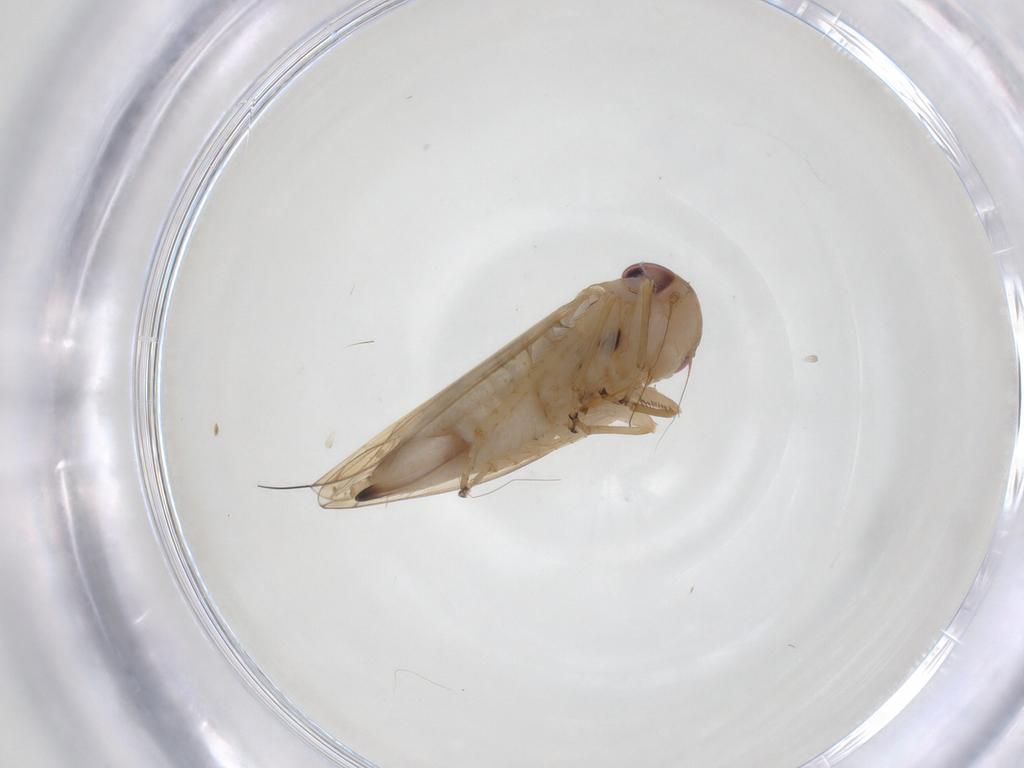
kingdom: Animalia
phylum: Arthropoda
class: Insecta
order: Hemiptera
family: Cicadellidae
